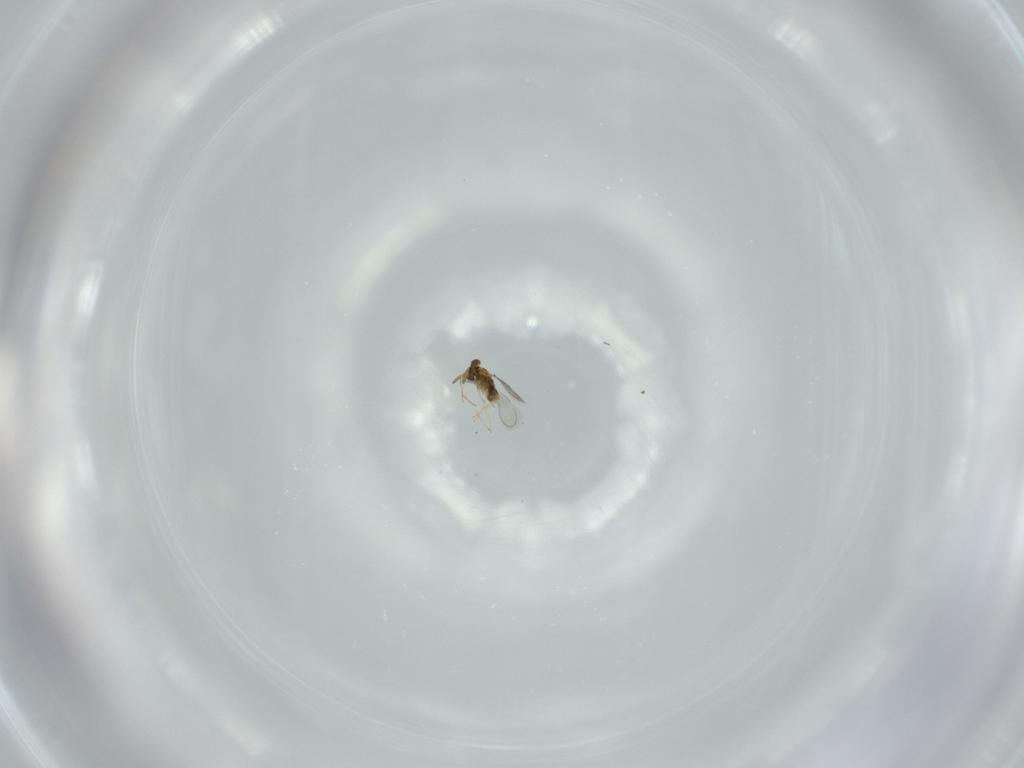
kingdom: Animalia
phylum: Arthropoda
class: Insecta
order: Hymenoptera
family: Aphelinidae
